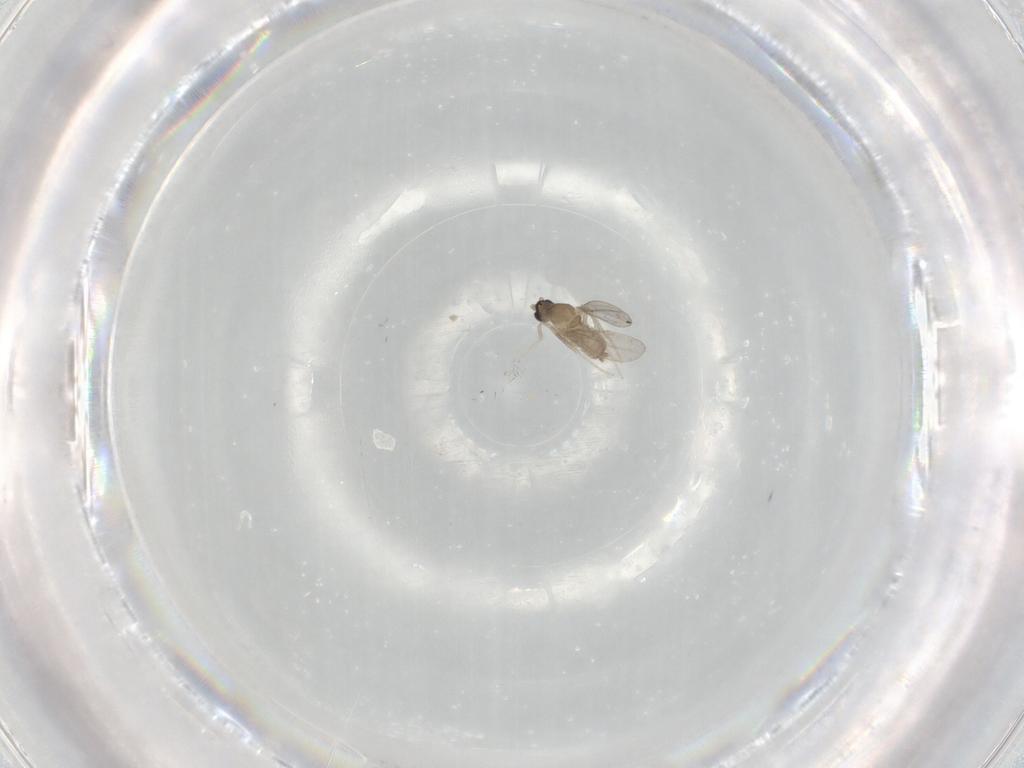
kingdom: Animalia
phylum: Arthropoda
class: Insecta
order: Diptera
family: Cecidomyiidae
